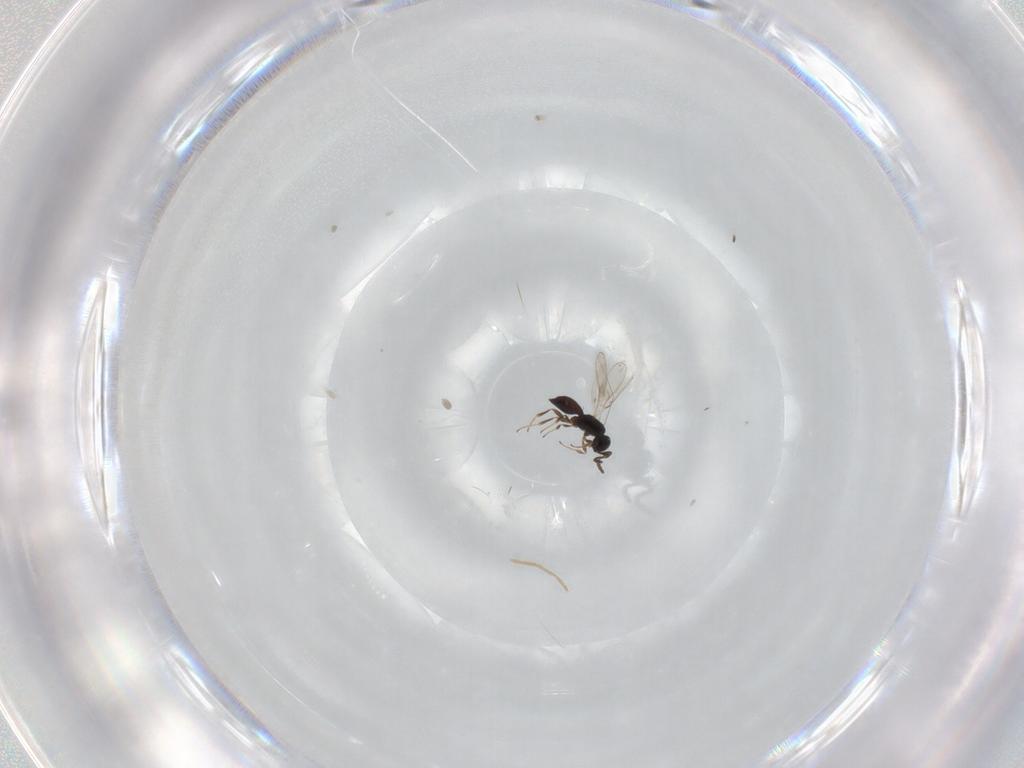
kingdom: Animalia
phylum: Arthropoda
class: Insecta
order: Hymenoptera
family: Scelionidae
